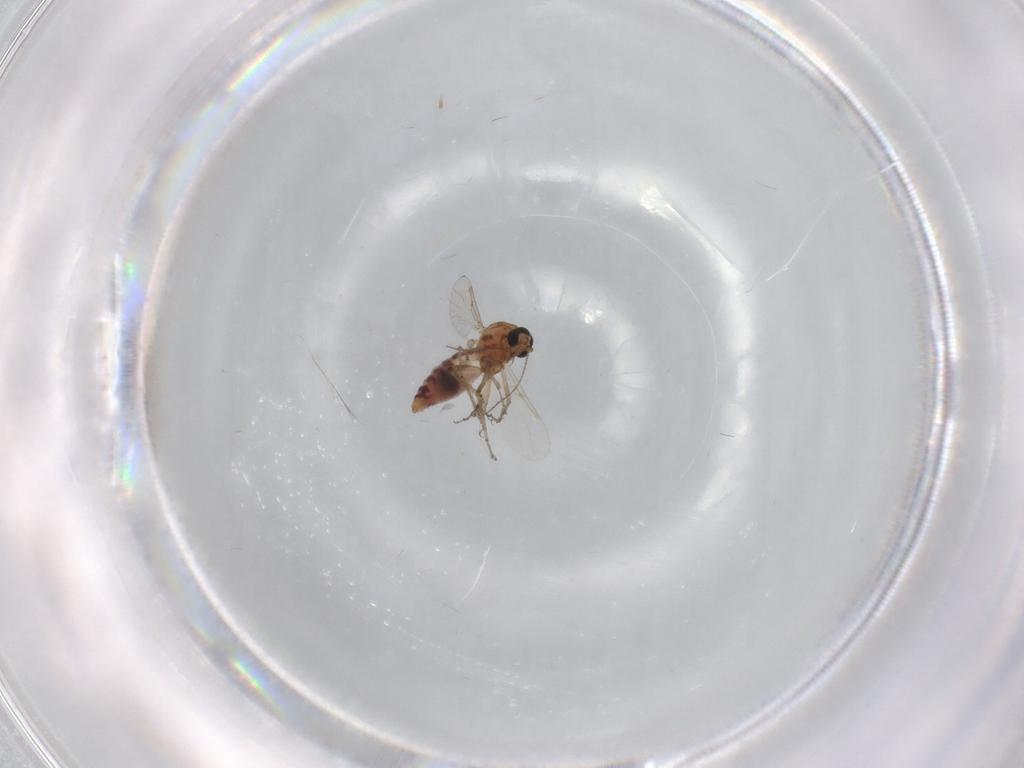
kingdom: Animalia
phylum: Arthropoda
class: Insecta
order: Diptera
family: Ceratopogonidae
